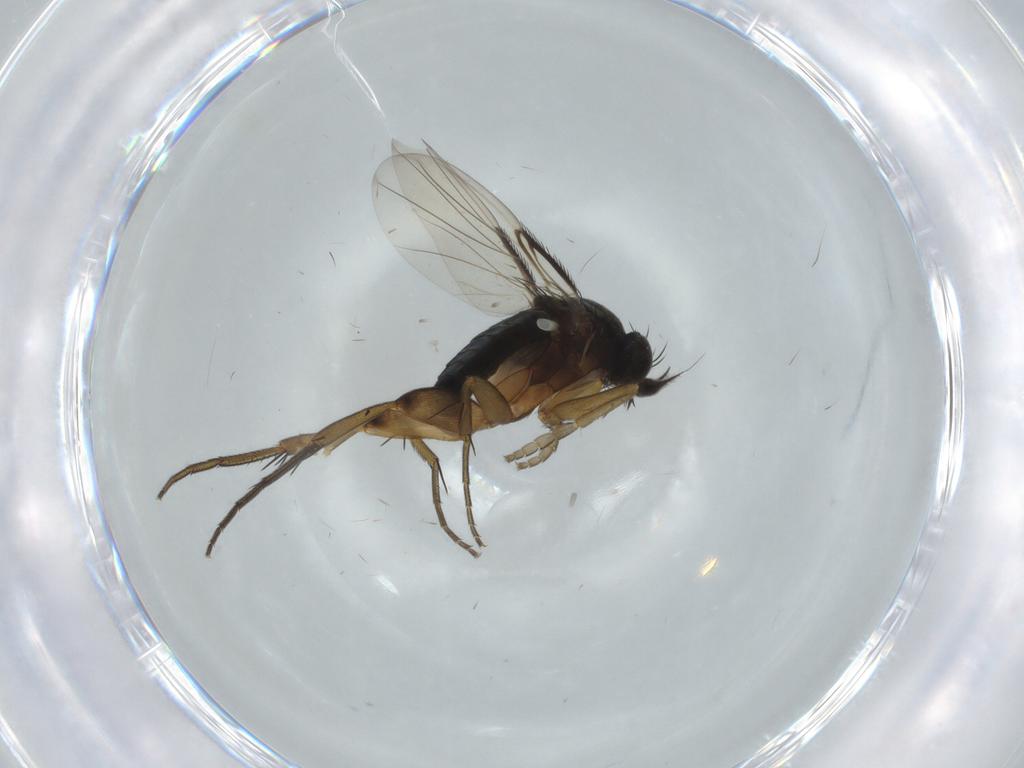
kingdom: Animalia
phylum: Arthropoda
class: Insecta
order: Diptera
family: Phoridae
